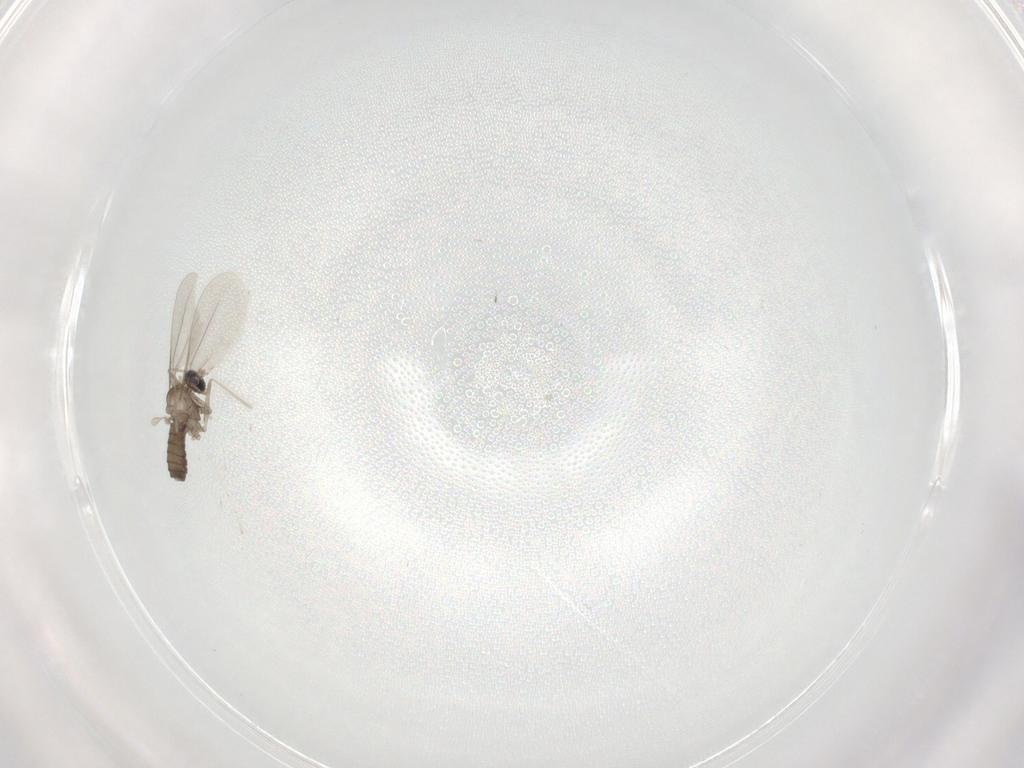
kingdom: Animalia
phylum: Arthropoda
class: Insecta
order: Diptera
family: Cecidomyiidae
